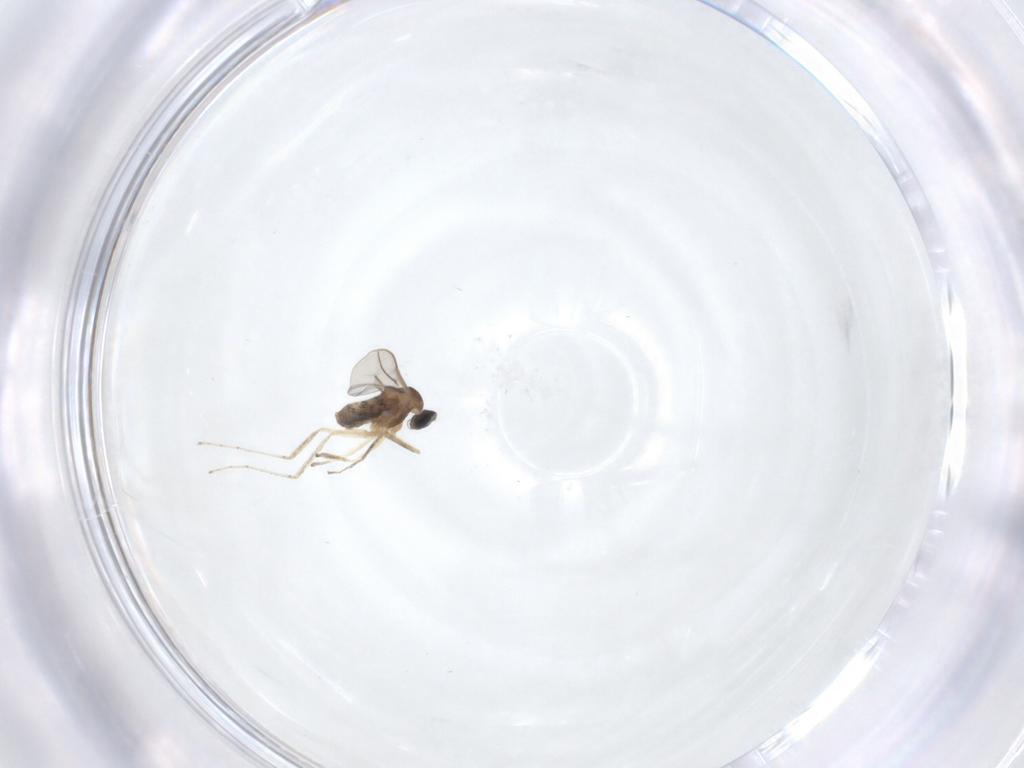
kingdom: Animalia
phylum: Arthropoda
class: Insecta
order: Diptera
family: Cecidomyiidae
